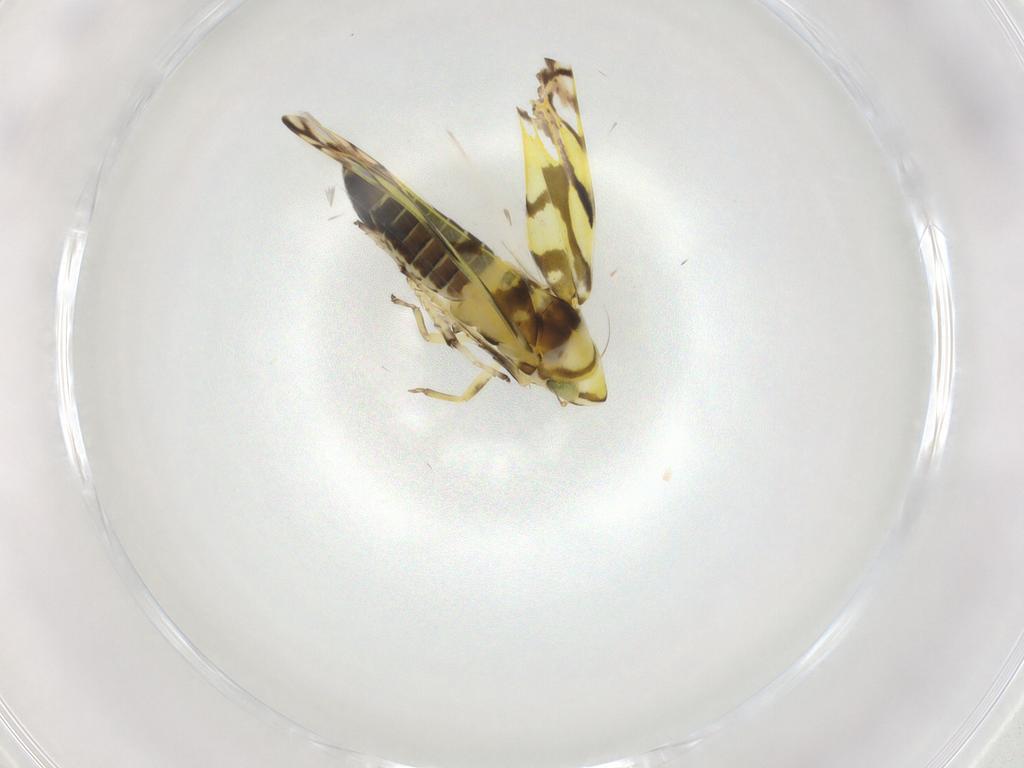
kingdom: Animalia
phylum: Arthropoda
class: Insecta
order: Hemiptera
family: Cicadellidae
